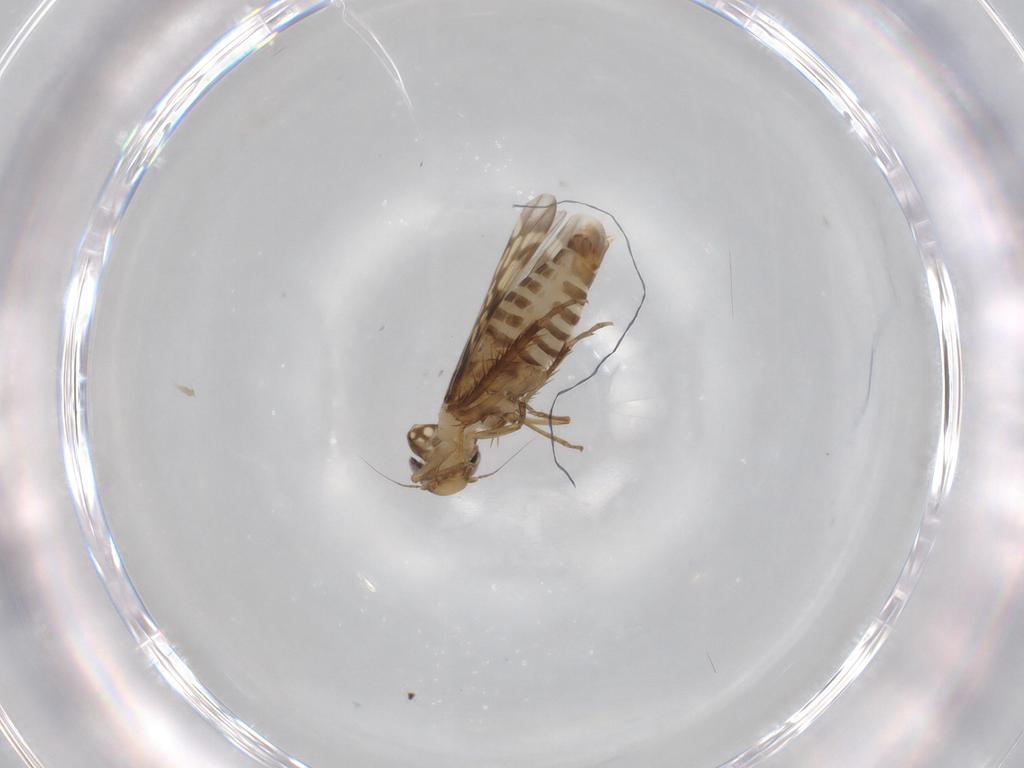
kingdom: Animalia
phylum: Arthropoda
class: Insecta
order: Hemiptera
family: Cicadellidae
